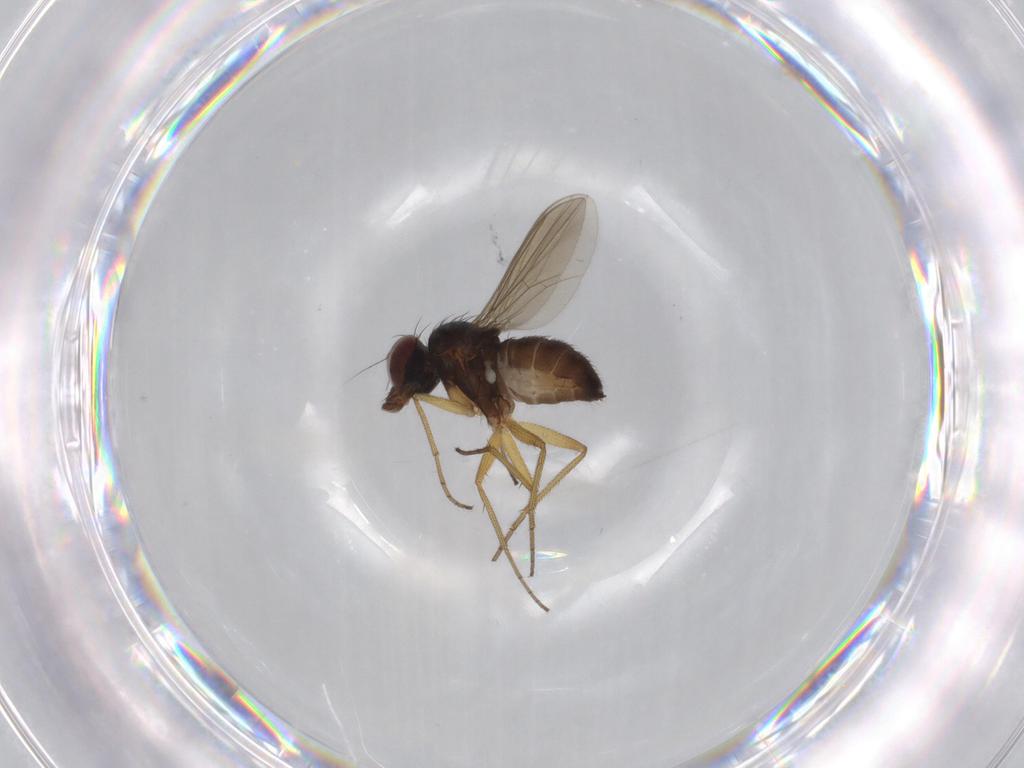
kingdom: Animalia
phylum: Arthropoda
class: Insecta
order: Diptera
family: Dolichopodidae
